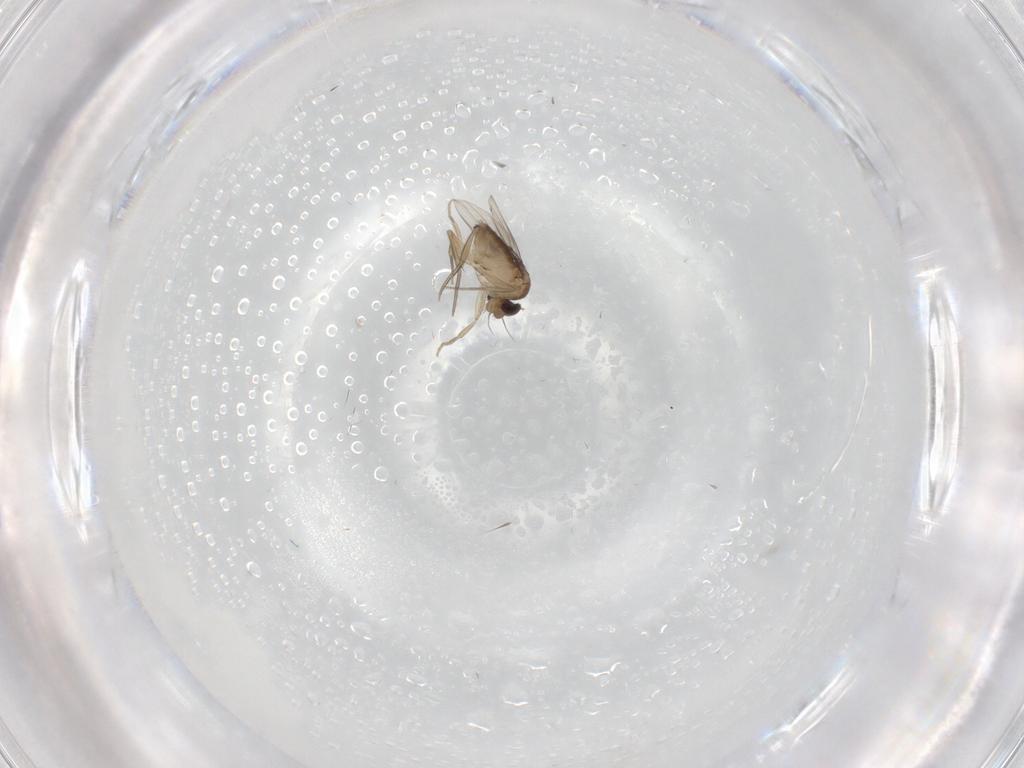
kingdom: Animalia
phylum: Arthropoda
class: Insecta
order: Diptera
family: Phoridae
